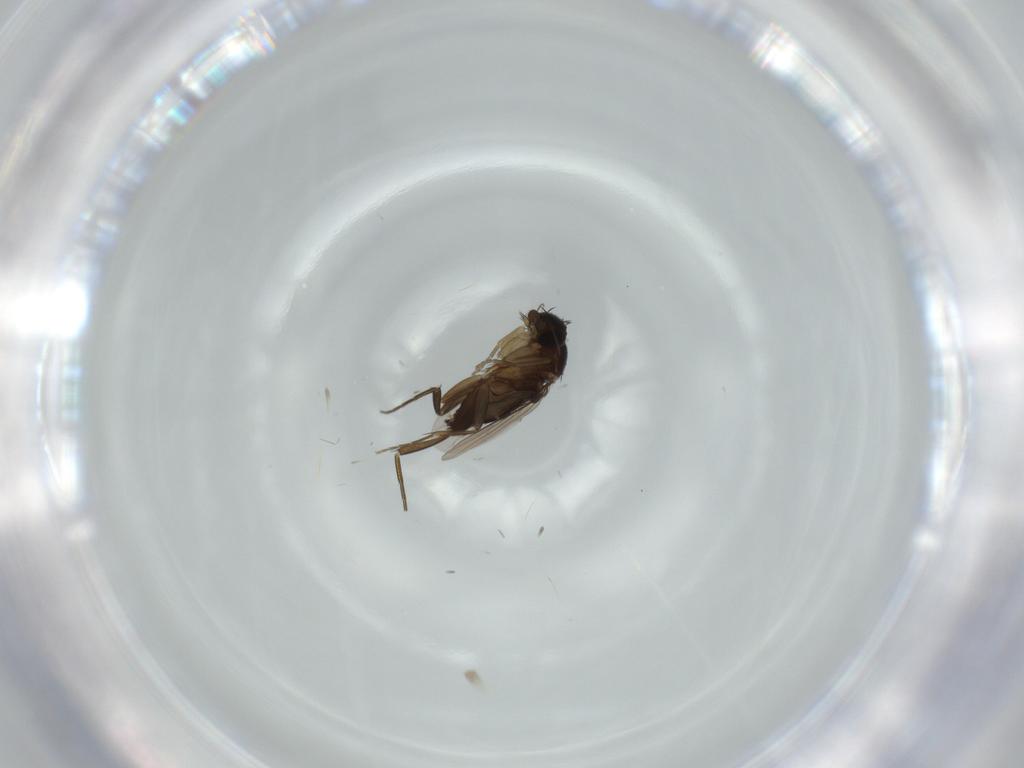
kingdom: Animalia
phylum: Arthropoda
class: Insecta
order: Diptera
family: Phoridae
